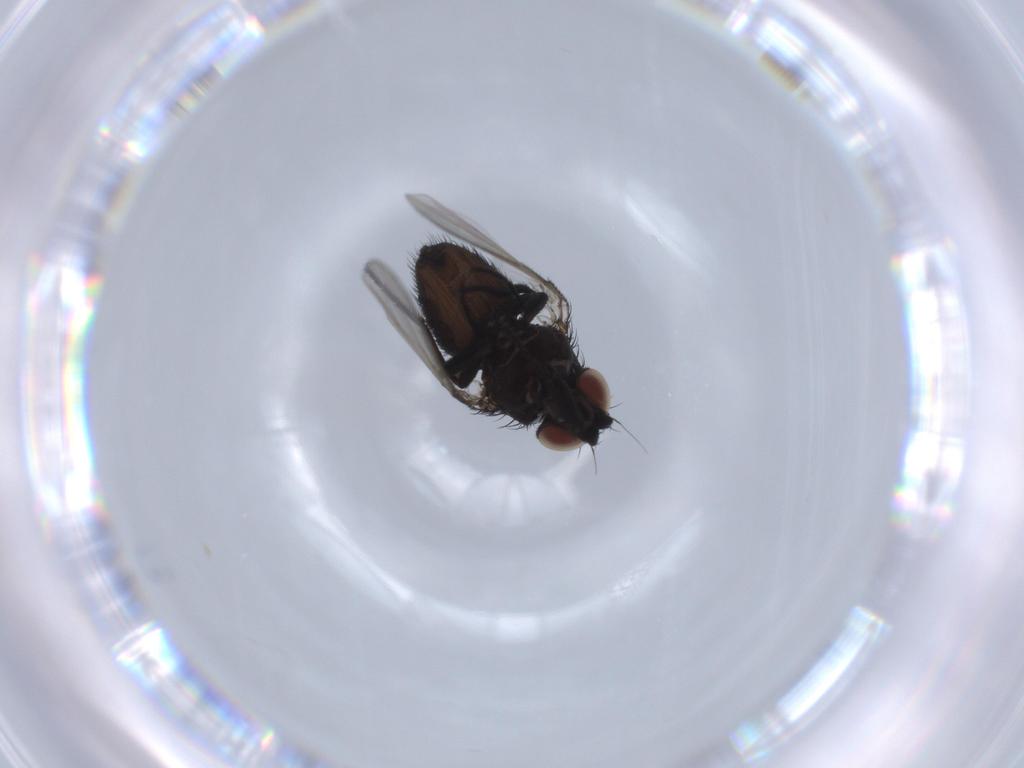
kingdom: Animalia
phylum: Arthropoda
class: Insecta
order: Diptera
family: Milichiidae
